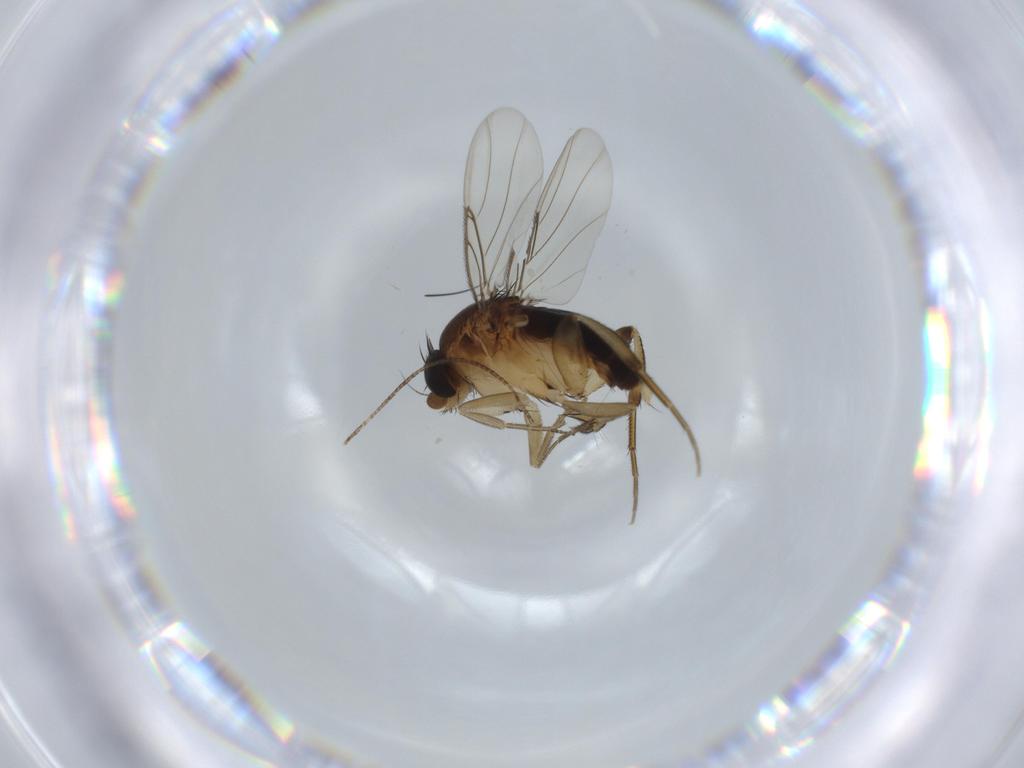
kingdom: Animalia
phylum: Arthropoda
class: Insecta
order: Diptera
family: Phoridae
